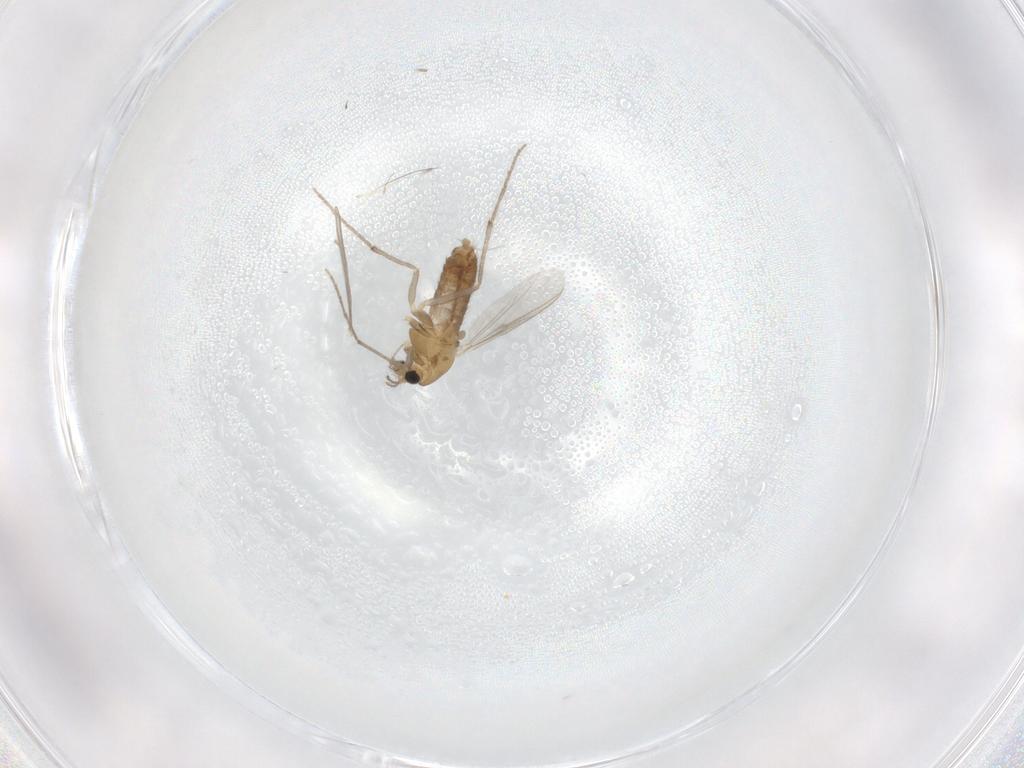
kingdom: Animalia
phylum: Arthropoda
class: Insecta
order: Diptera
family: Chironomidae
